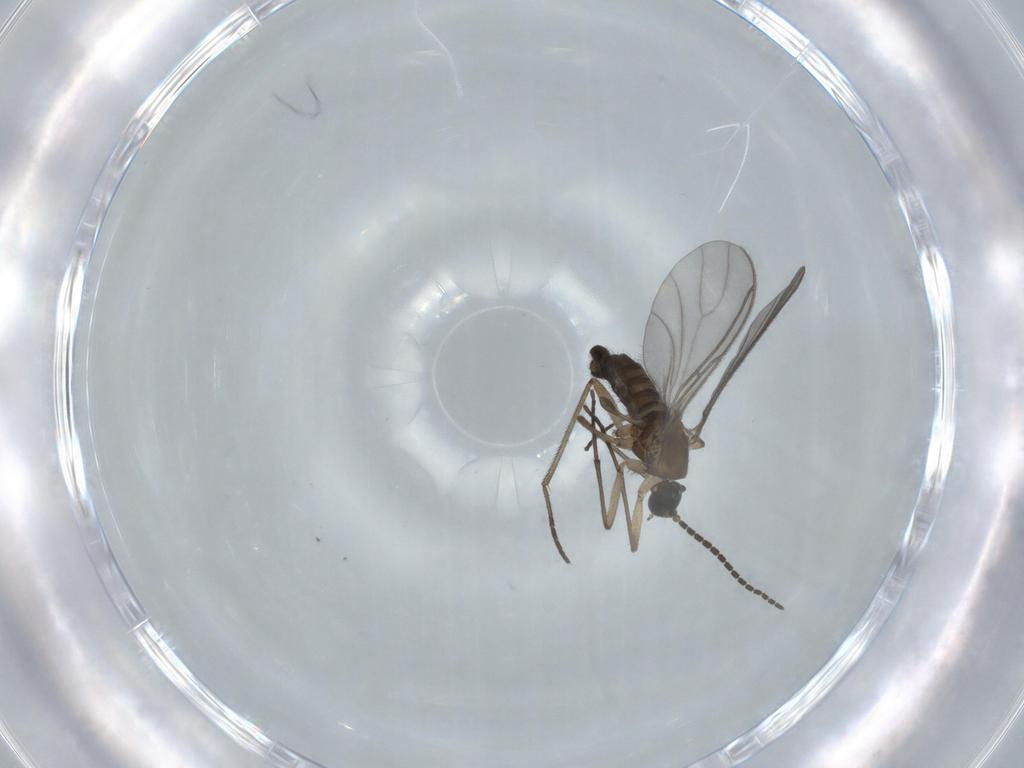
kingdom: Animalia
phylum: Arthropoda
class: Insecta
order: Diptera
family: Sciaridae
